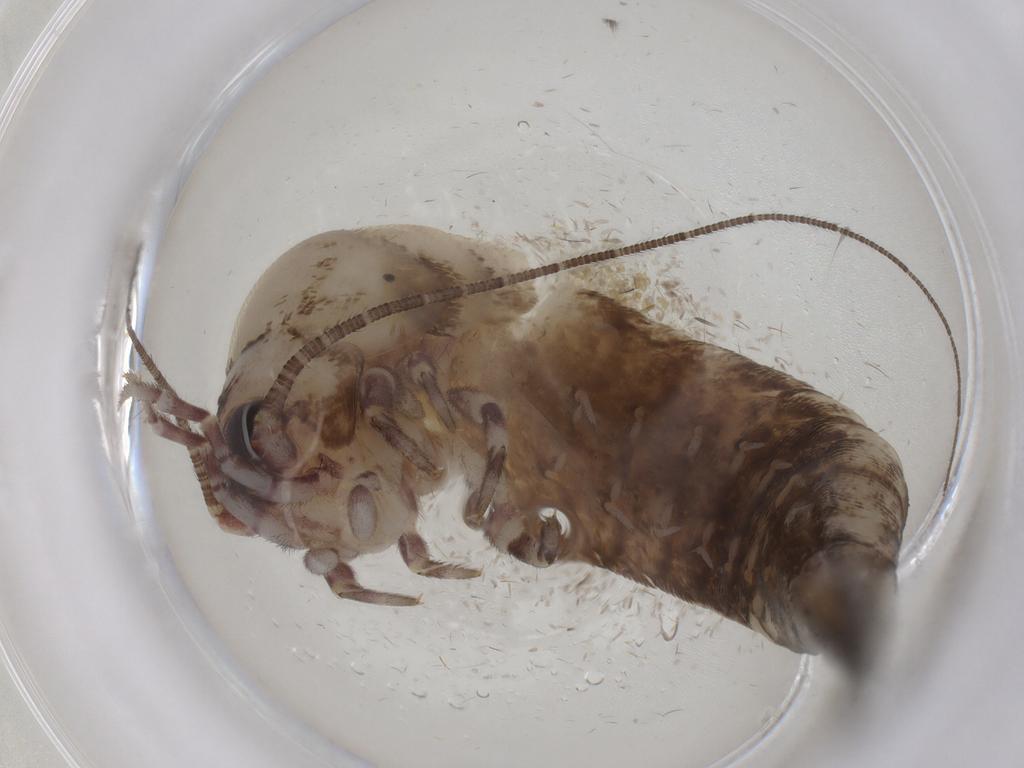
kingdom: Animalia
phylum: Arthropoda
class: Insecta
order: Archaeognatha
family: Machilidae
